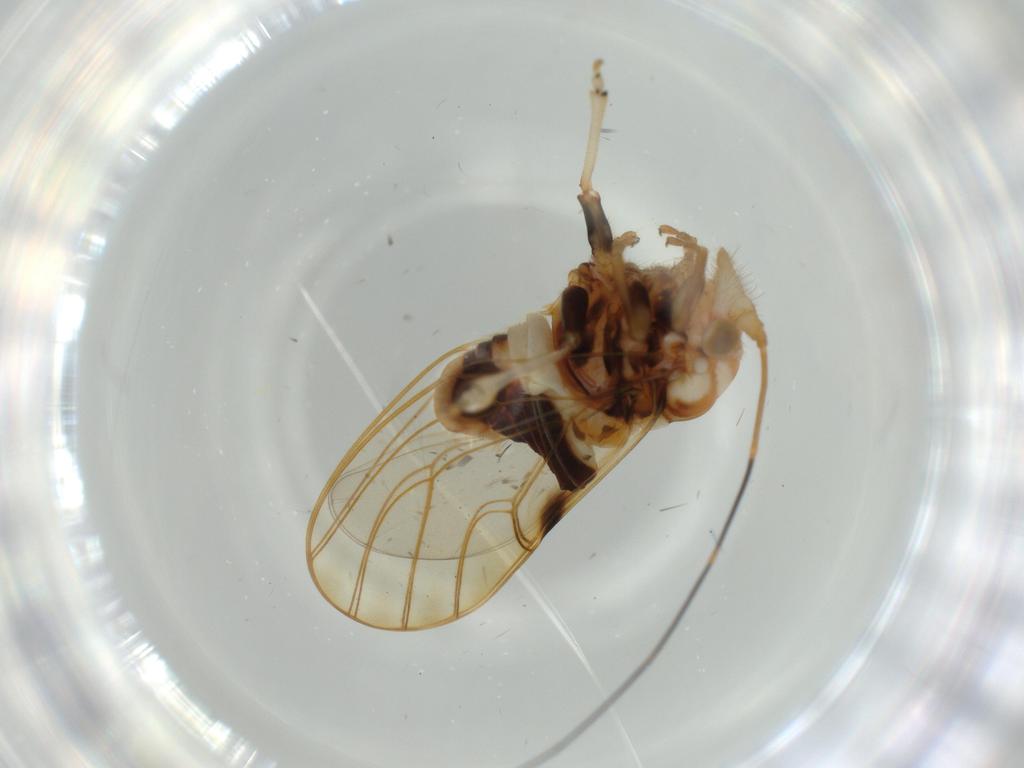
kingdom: Animalia
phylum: Arthropoda
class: Insecta
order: Hemiptera
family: Psyllidae
